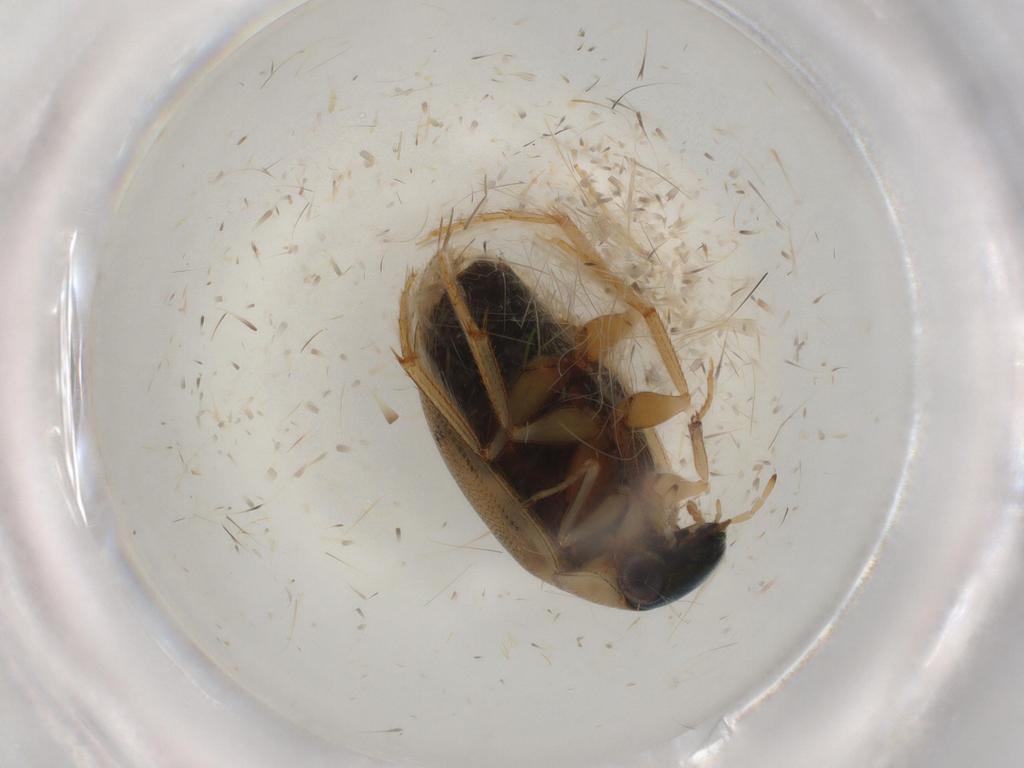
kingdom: Animalia
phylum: Arthropoda
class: Insecta
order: Coleoptera
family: Hydrophilidae
